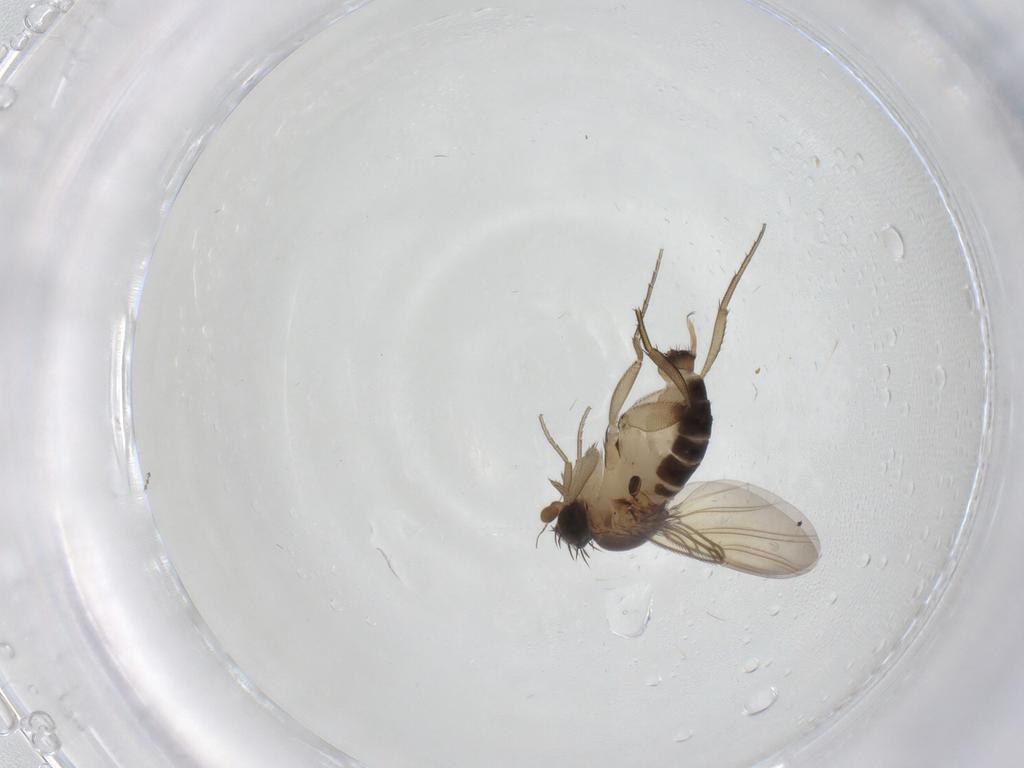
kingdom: Animalia
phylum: Arthropoda
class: Insecta
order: Diptera
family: Phoridae
